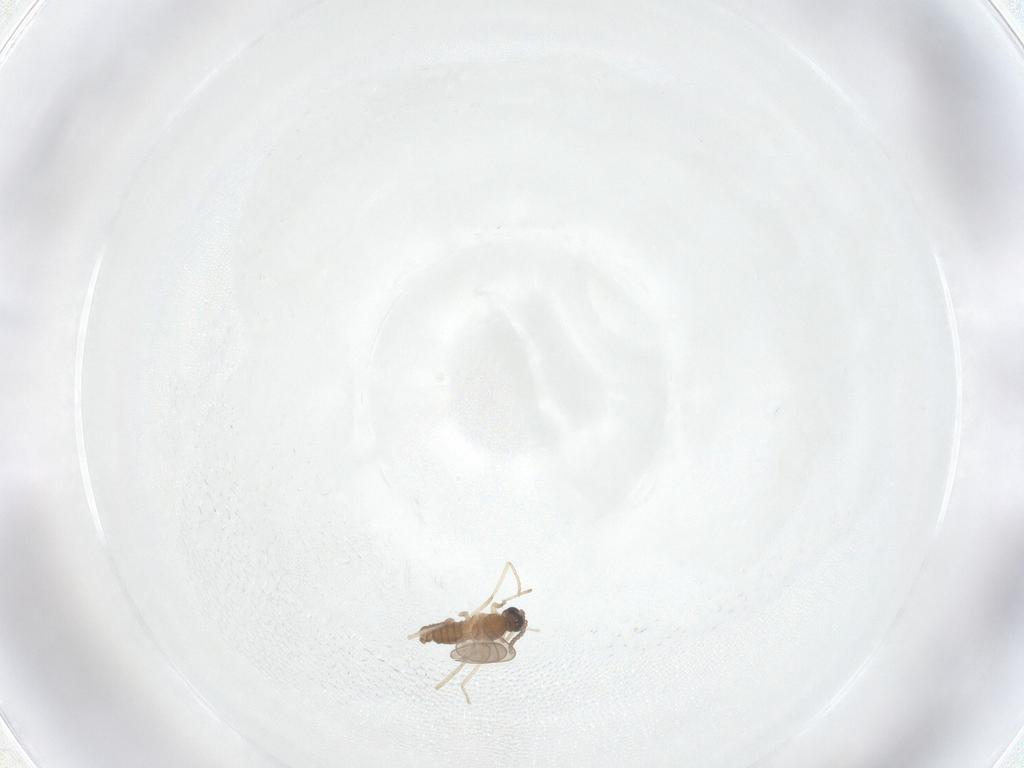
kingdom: Animalia
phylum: Arthropoda
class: Insecta
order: Diptera
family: Cecidomyiidae
